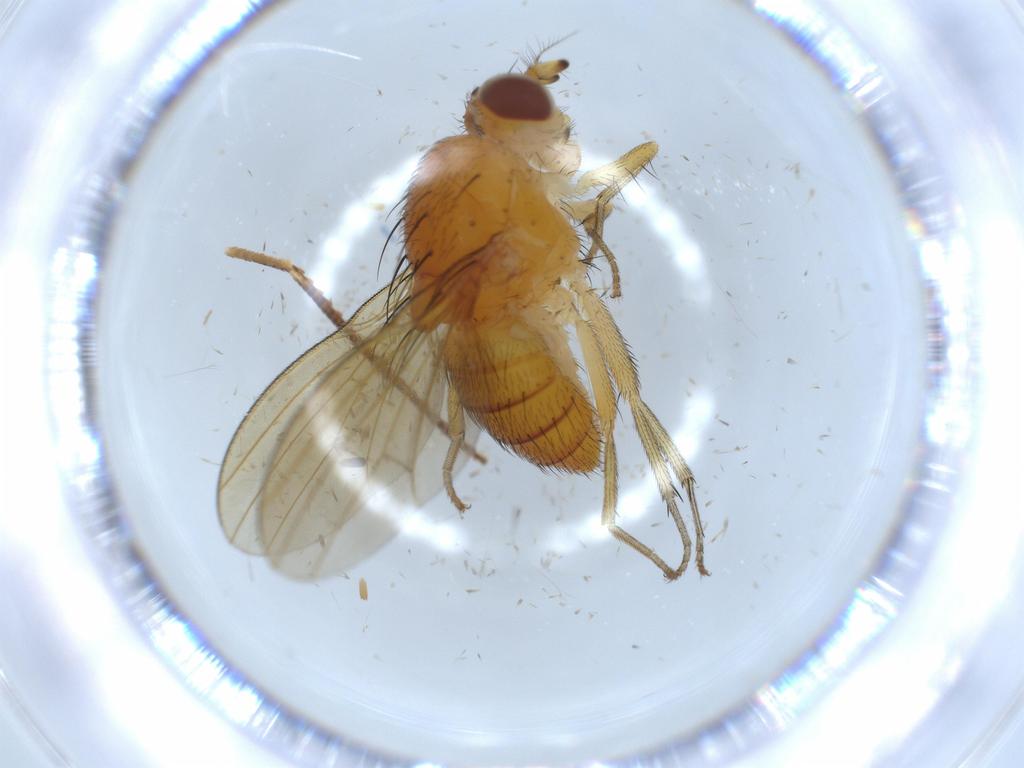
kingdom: Animalia
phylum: Arthropoda
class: Insecta
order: Diptera
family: Lauxaniidae
